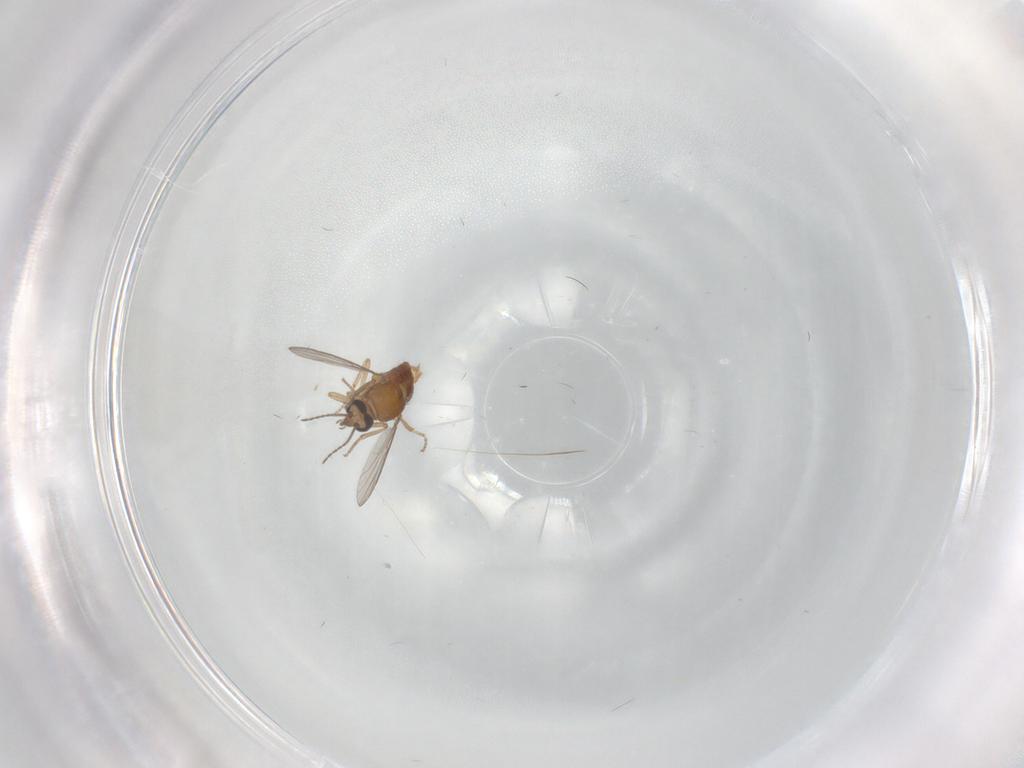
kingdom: Animalia
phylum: Arthropoda
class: Insecta
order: Diptera
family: Ceratopogonidae
